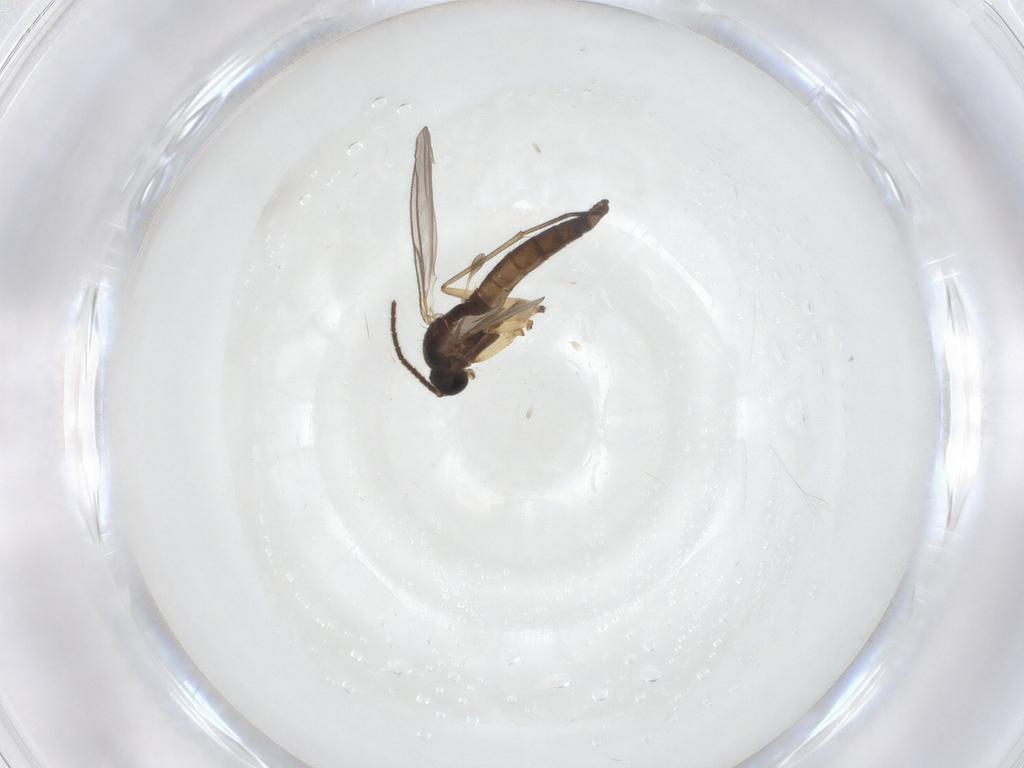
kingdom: Animalia
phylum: Arthropoda
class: Insecta
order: Diptera
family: Sciaridae
